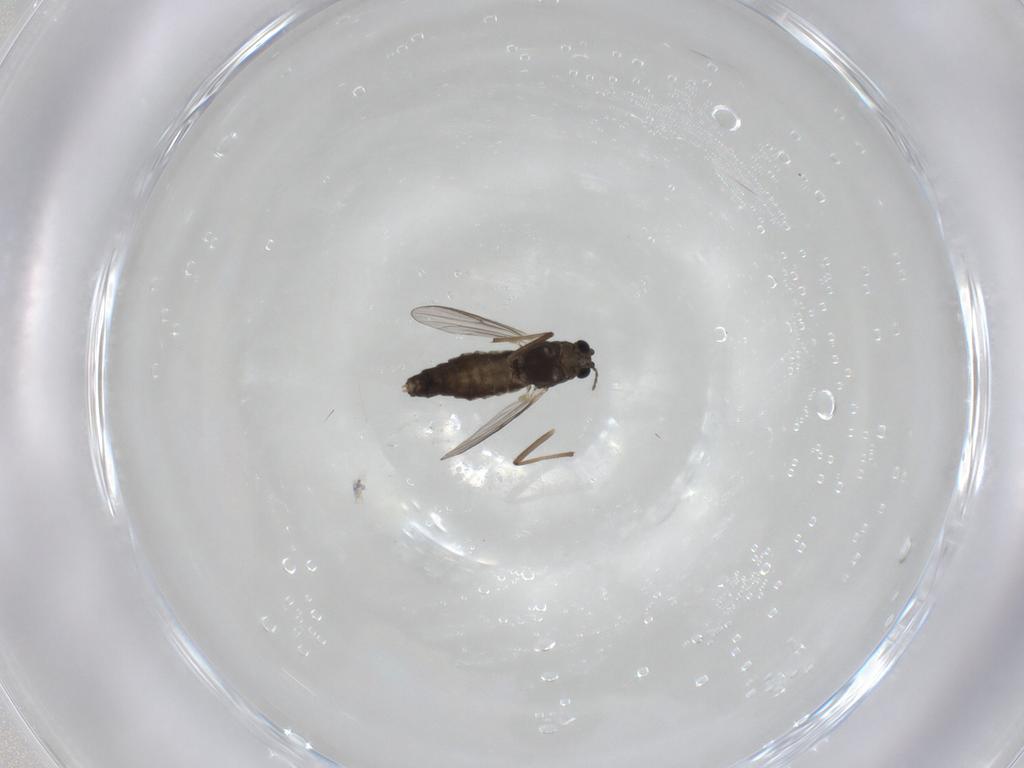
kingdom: Animalia
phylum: Arthropoda
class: Insecta
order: Diptera
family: Chironomidae
